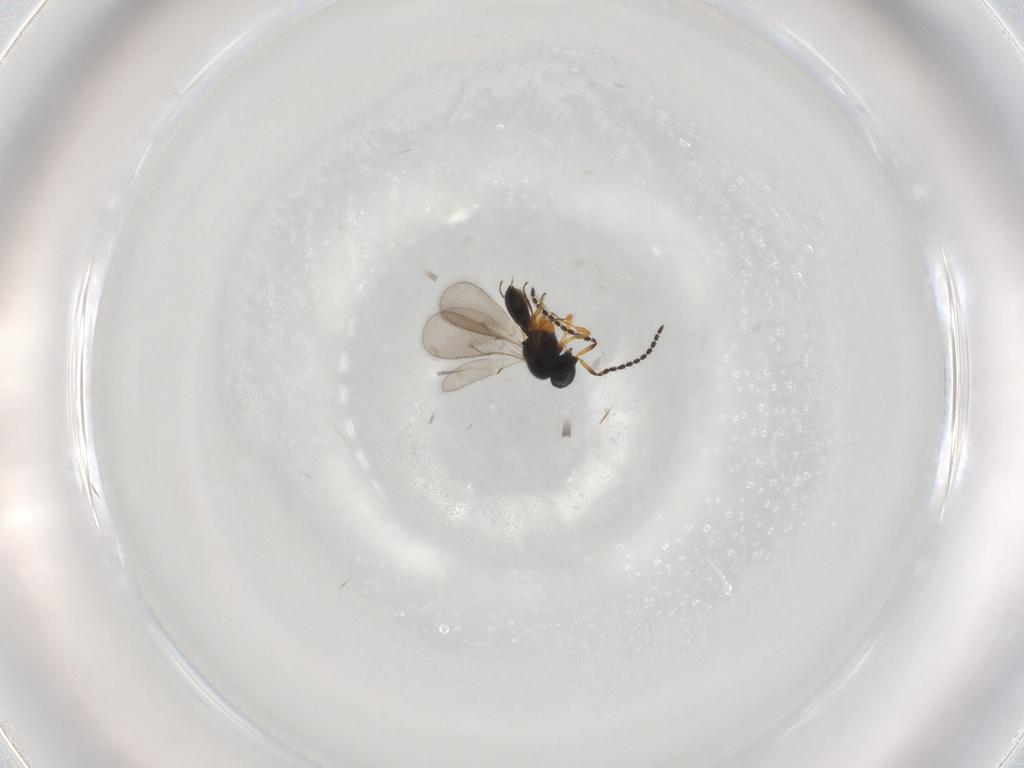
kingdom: Animalia
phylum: Arthropoda
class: Insecta
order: Hymenoptera
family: Scelionidae
